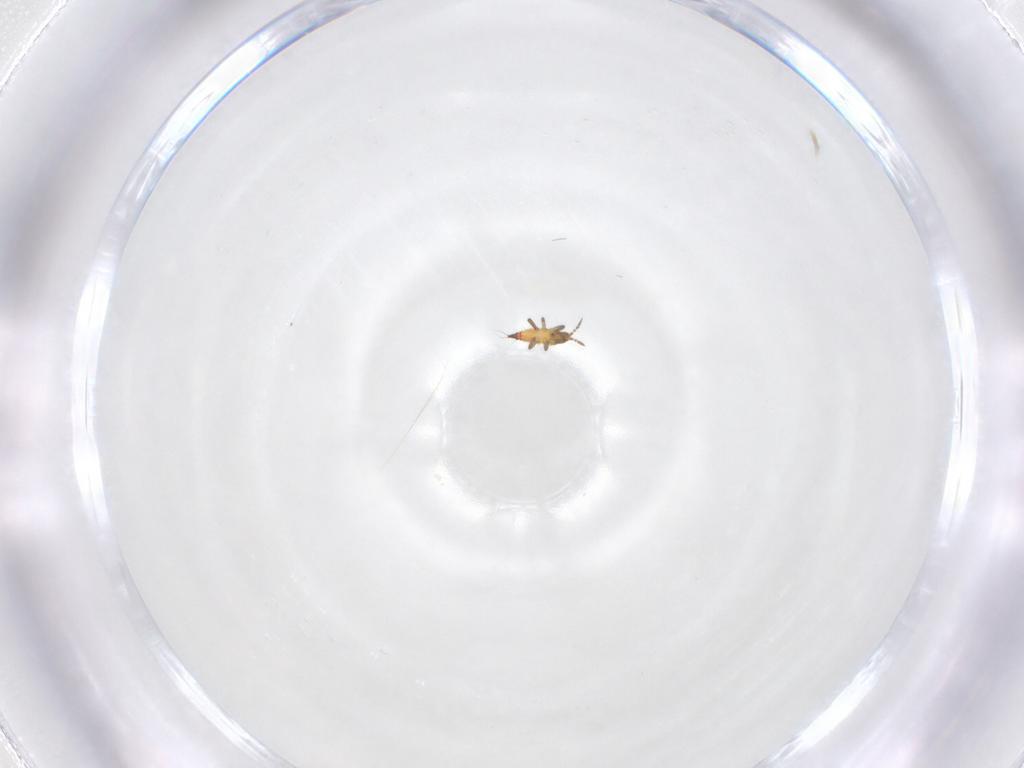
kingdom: Animalia
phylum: Arthropoda
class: Insecta
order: Thysanoptera
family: Phlaeothripidae
